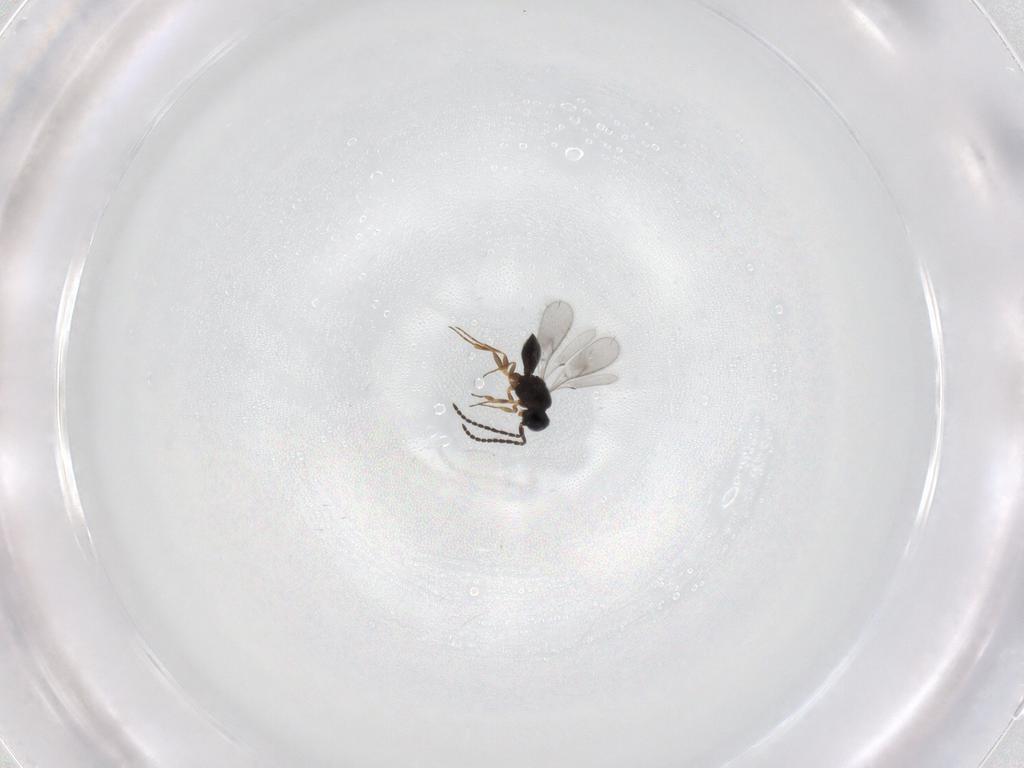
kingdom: Animalia
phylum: Arthropoda
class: Insecta
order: Hymenoptera
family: Scelionidae
